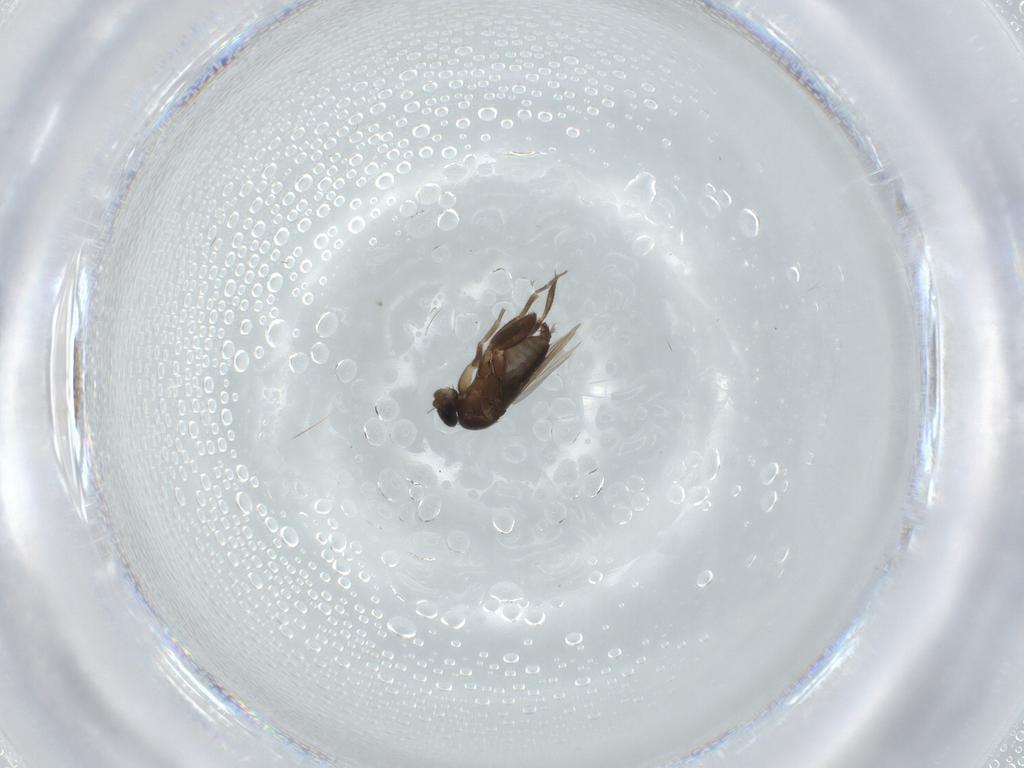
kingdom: Animalia
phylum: Arthropoda
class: Insecta
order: Diptera
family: Phoridae
